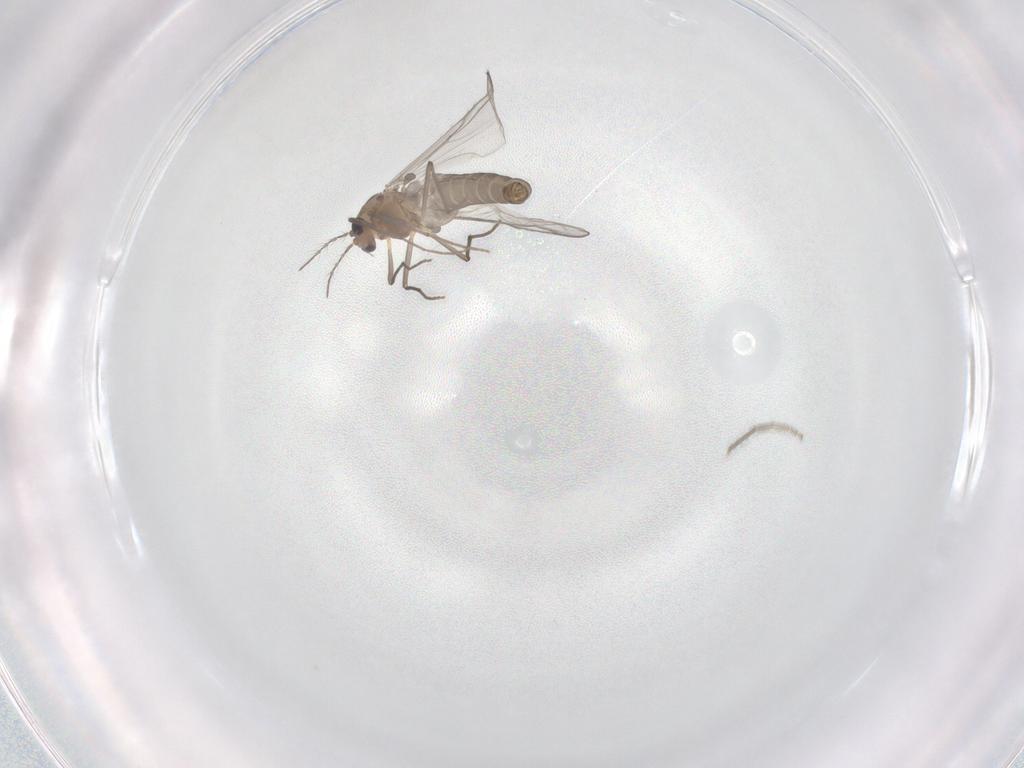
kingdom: Animalia
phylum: Arthropoda
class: Insecta
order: Diptera
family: Chironomidae
